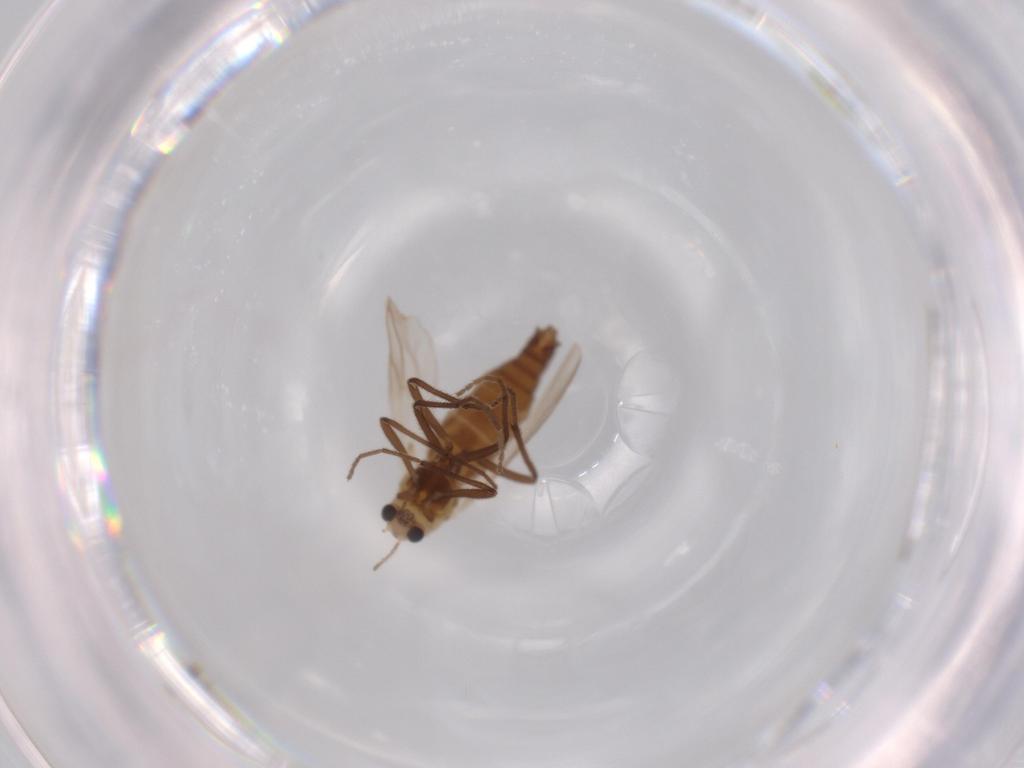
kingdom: Animalia
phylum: Arthropoda
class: Insecta
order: Diptera
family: Chironomidae
